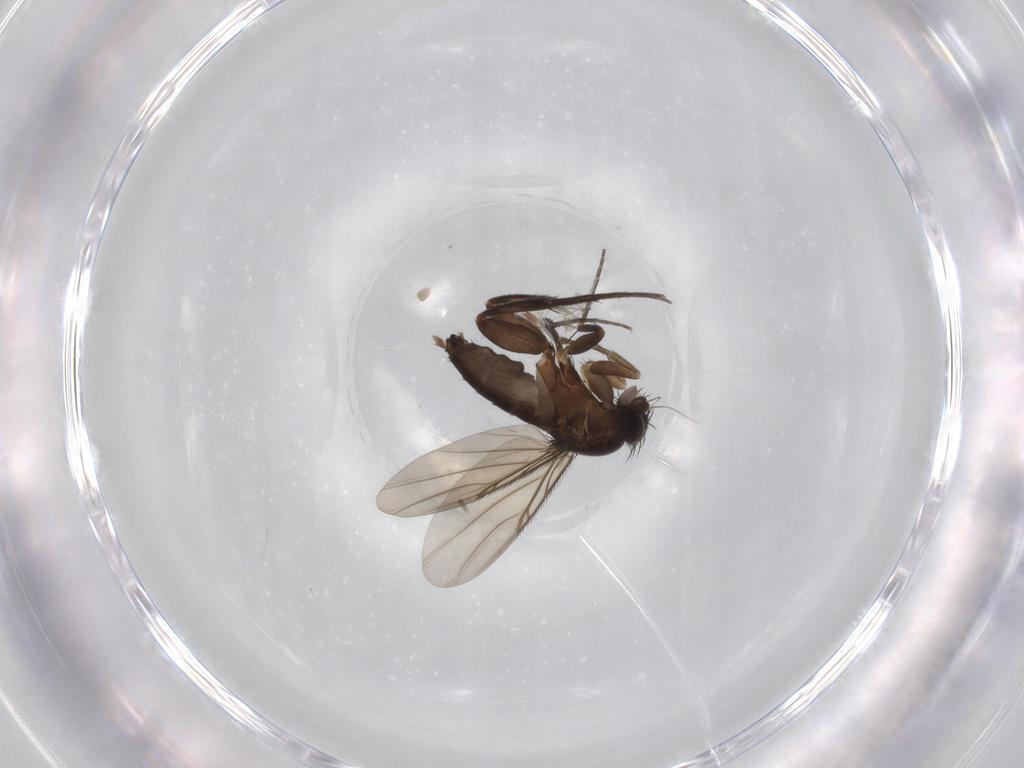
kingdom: Animalia
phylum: Arthropoda
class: Insecta
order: Diptera
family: Phoridae
